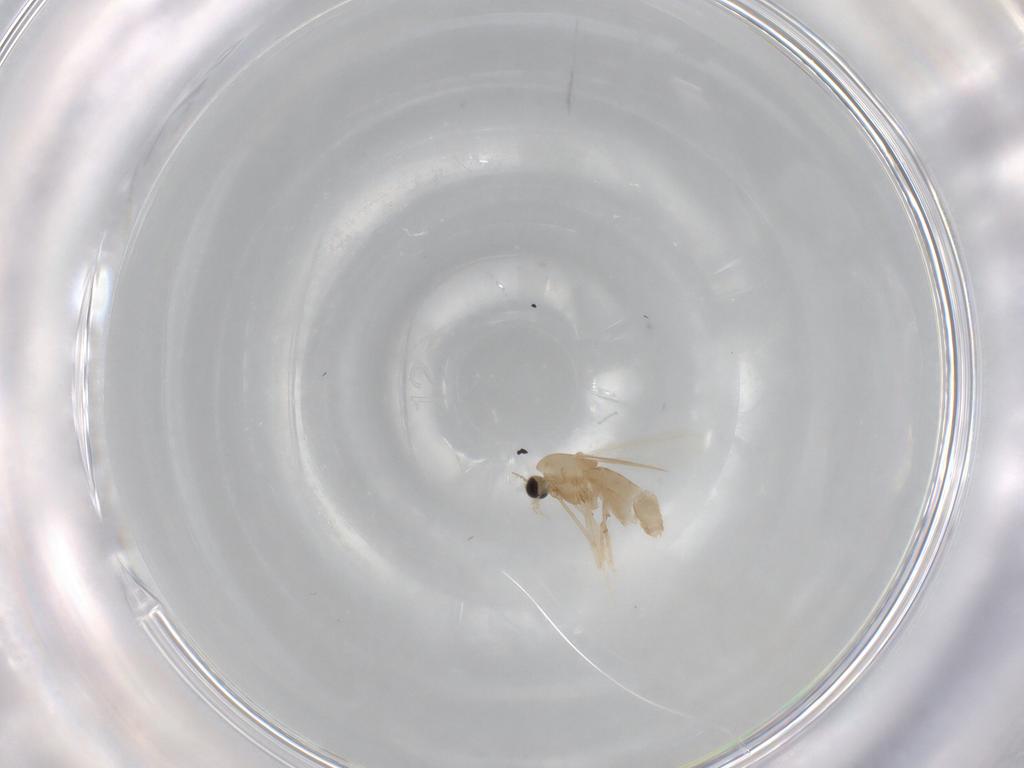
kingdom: Animalia
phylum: Arthropoda
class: Insecta
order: Diptera
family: Chironomidae
